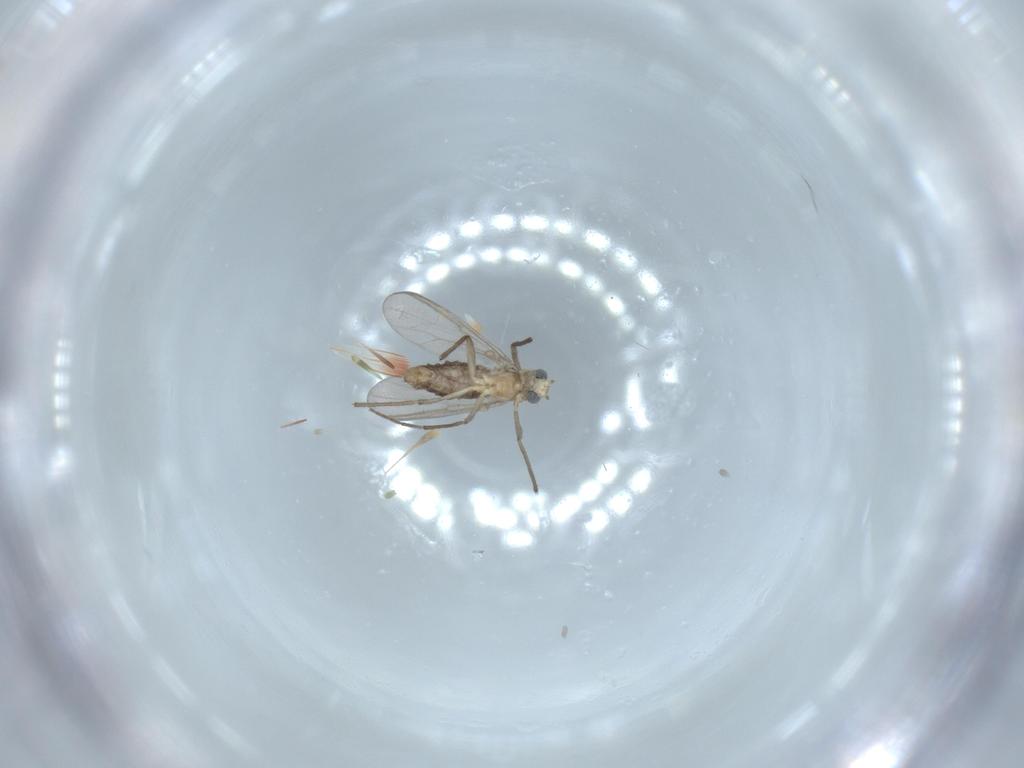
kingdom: Animalia
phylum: Arthropoda
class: Insecta
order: Diptera
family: Chironomidae
